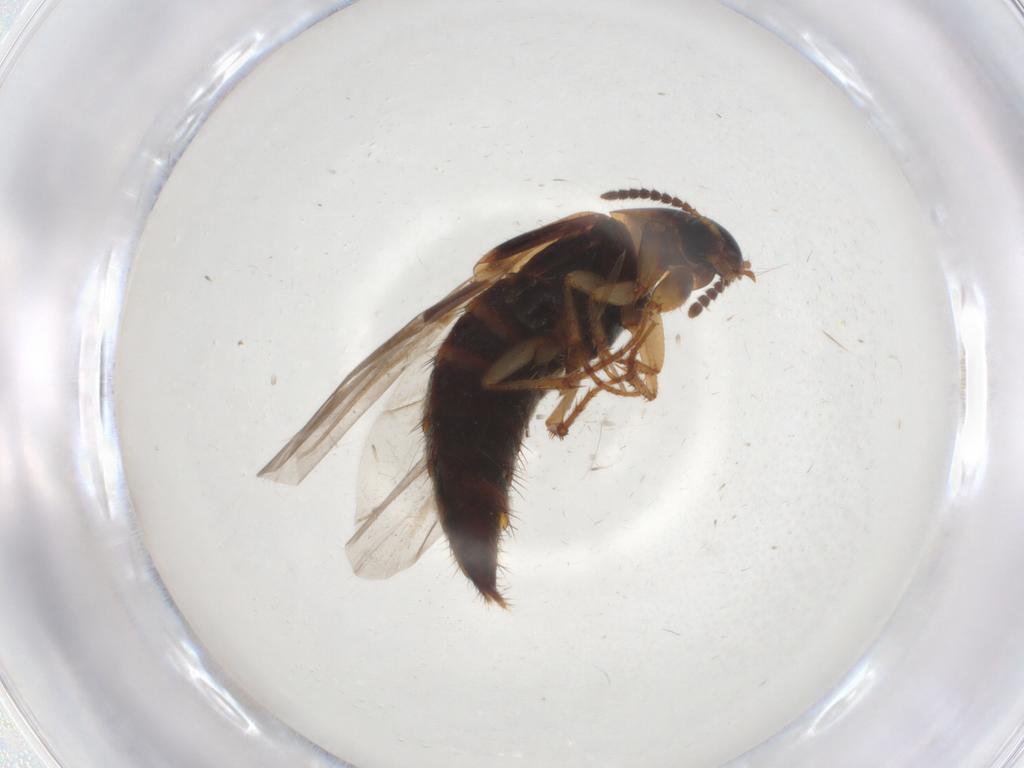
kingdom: Animalia
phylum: Arthropoda
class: Insecta
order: Coleoptera
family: Staphylinidae
